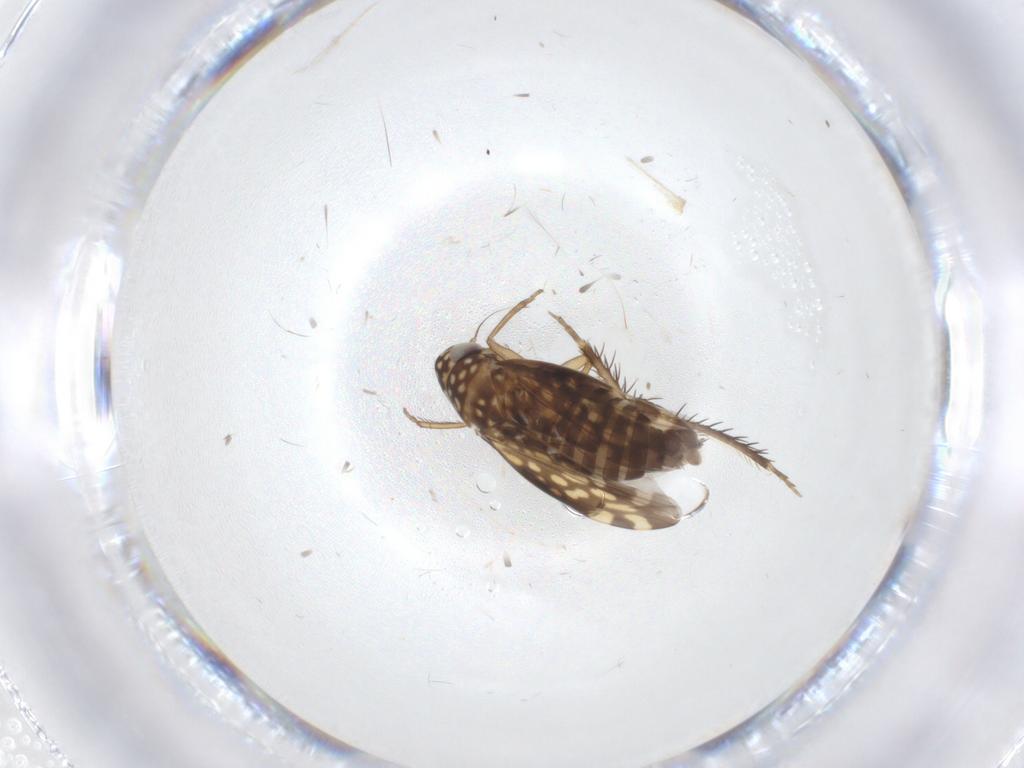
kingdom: Animalia
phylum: Arthropoda
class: Insecta
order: Hemiptera
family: Cicadellidae
